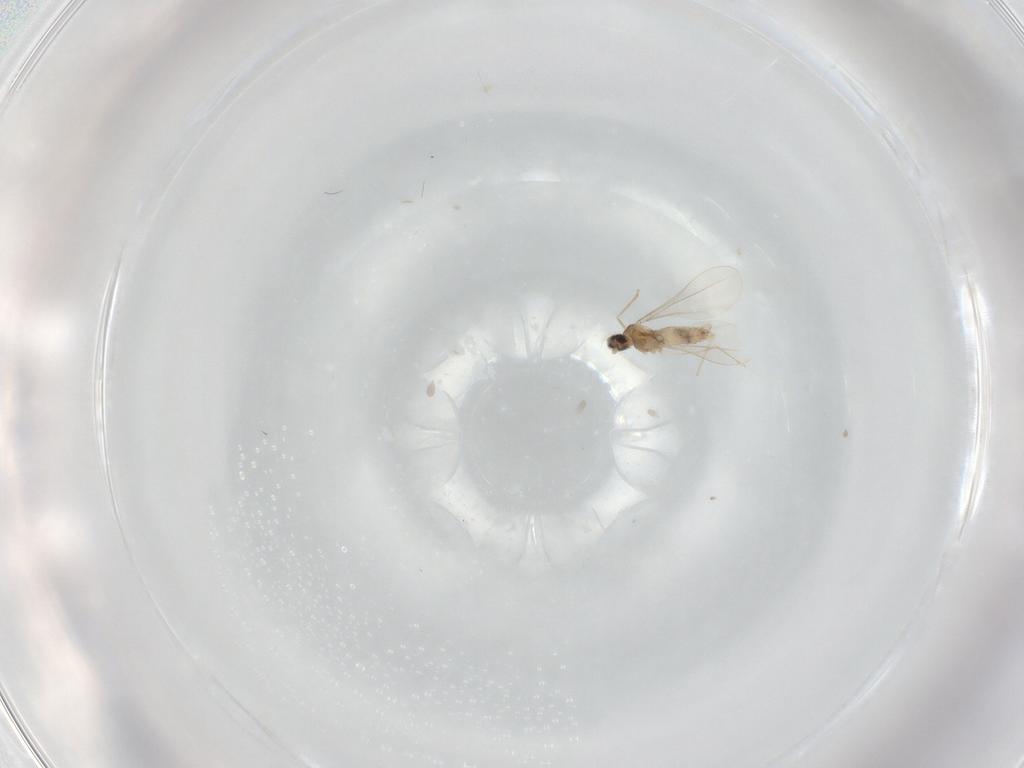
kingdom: Animalia
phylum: Arthropoda
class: Insecta
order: Diptera
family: Cecidomyiidae
